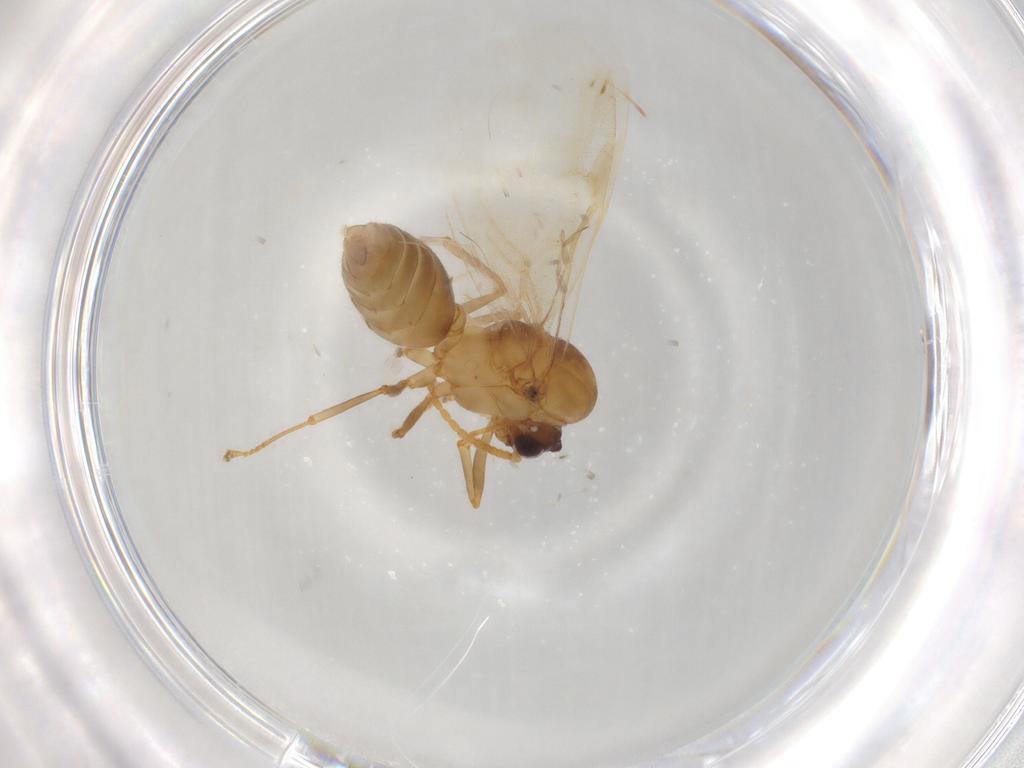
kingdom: Animalia
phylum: Arthropoda
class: Insecta
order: Hymenoptera
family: Formicidae
